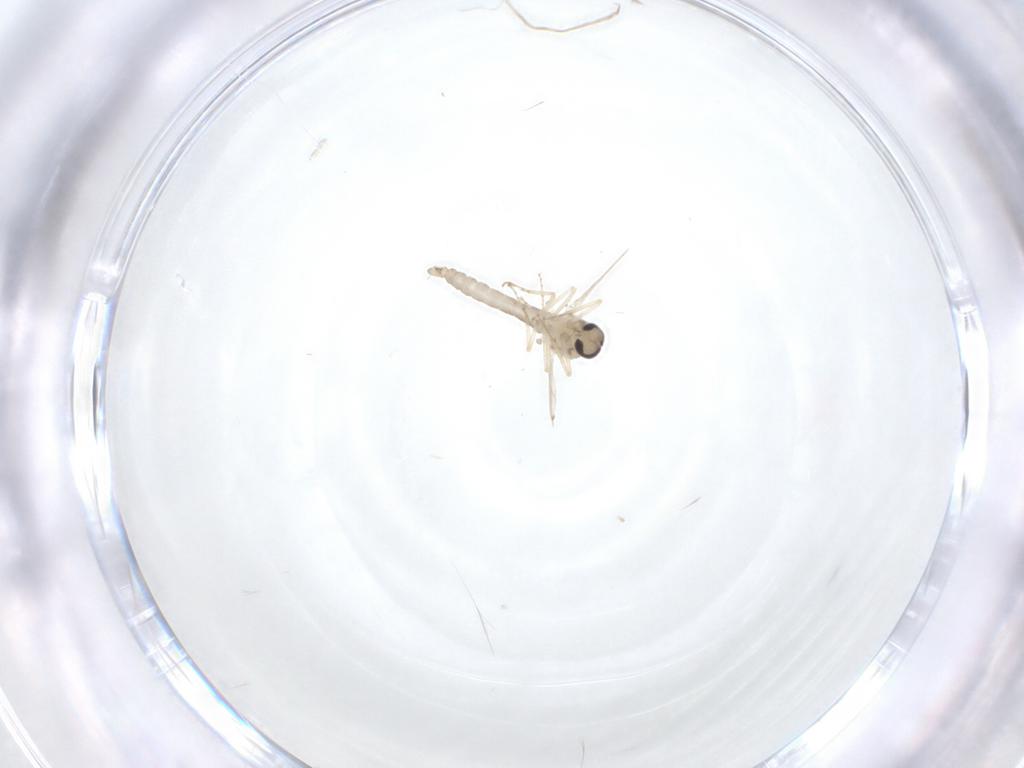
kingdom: Animalia
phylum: Arthropoda
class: Insecta
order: Diptera
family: Ceratopogonidae
